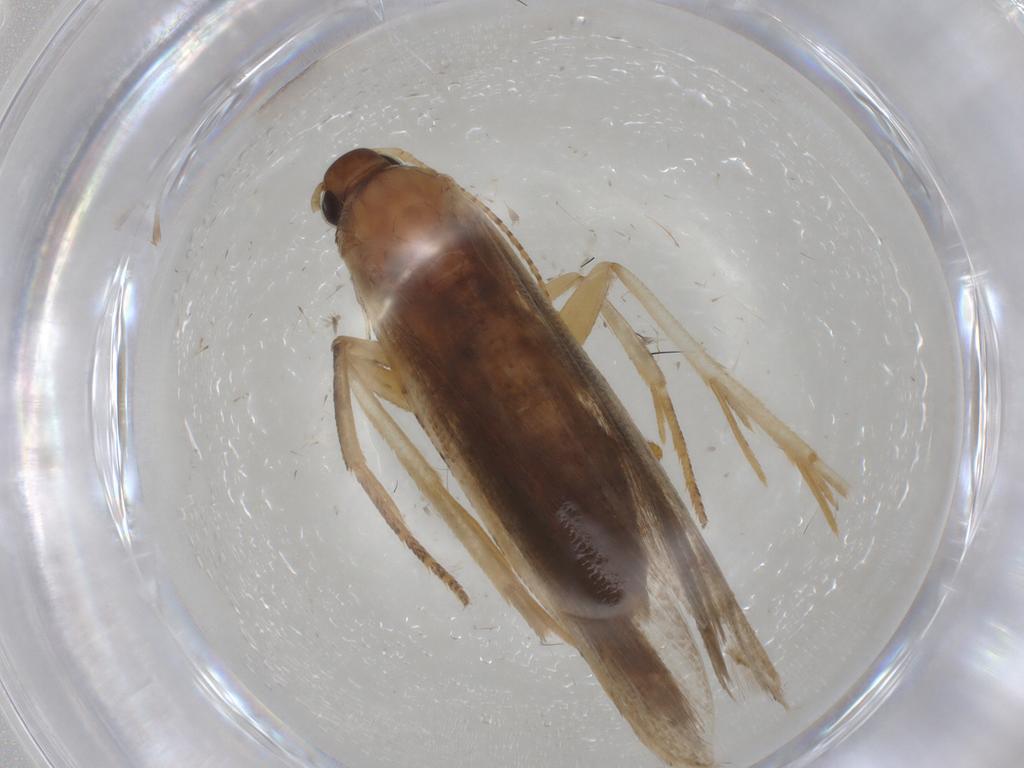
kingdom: Animalia
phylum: Arthropoda
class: Insecta
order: Lepidoptera
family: Gelechiidae
